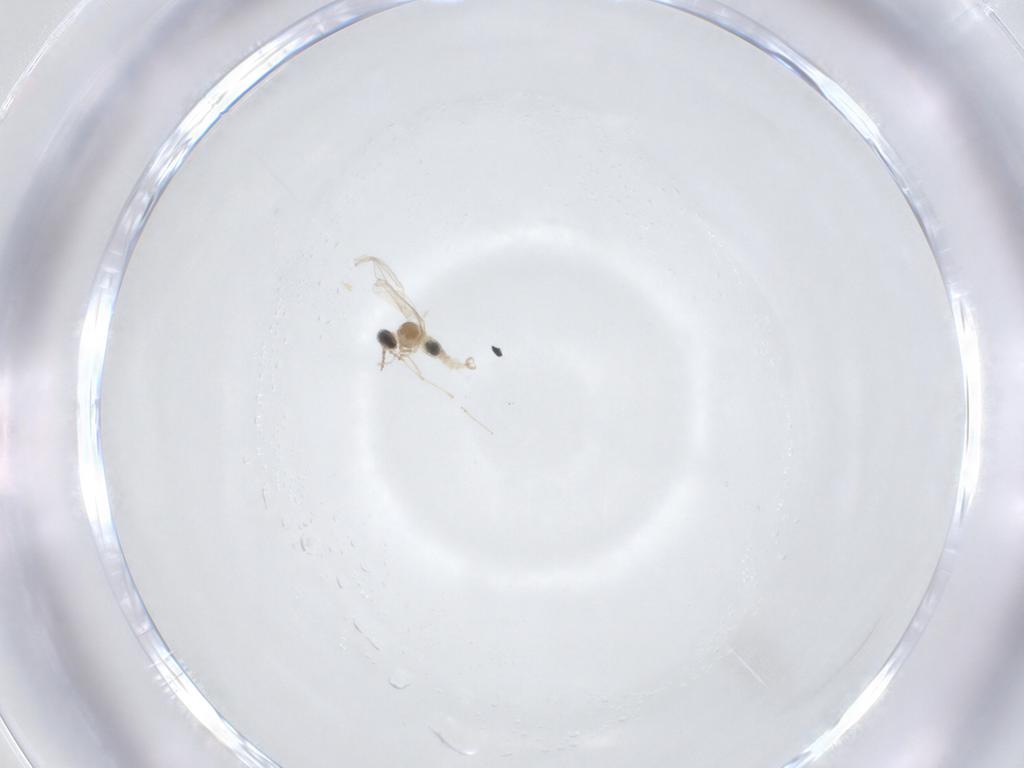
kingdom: Animalia
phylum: Arthropoda
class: Insecta
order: Diptera
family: Cecidomyiidae
